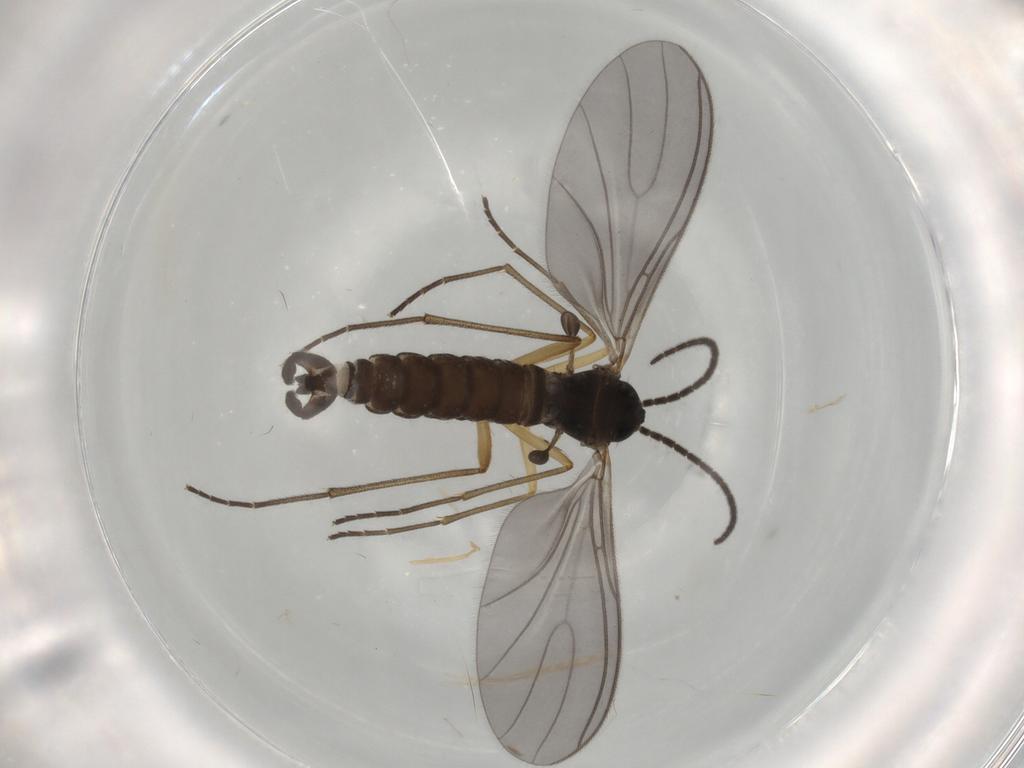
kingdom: Animalia
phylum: Arthropoda
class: Insecta
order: Diptera
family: Sciaridae
